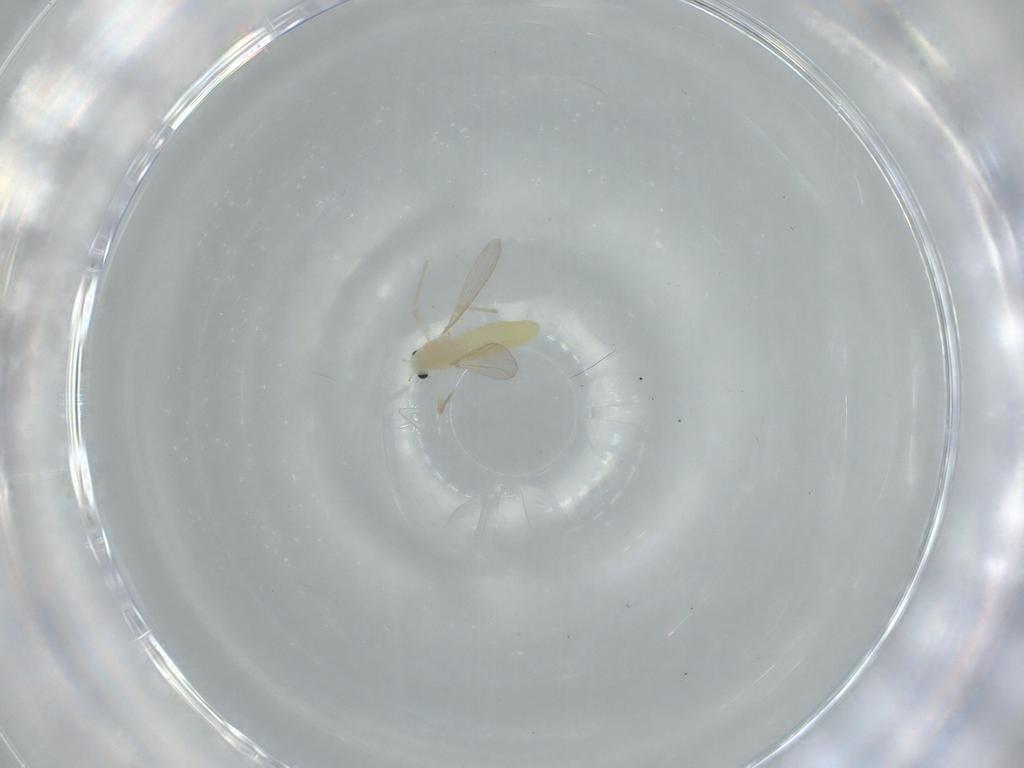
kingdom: Animalia
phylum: Arthropoda
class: Insecta
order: Diptera
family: Chironomidae
